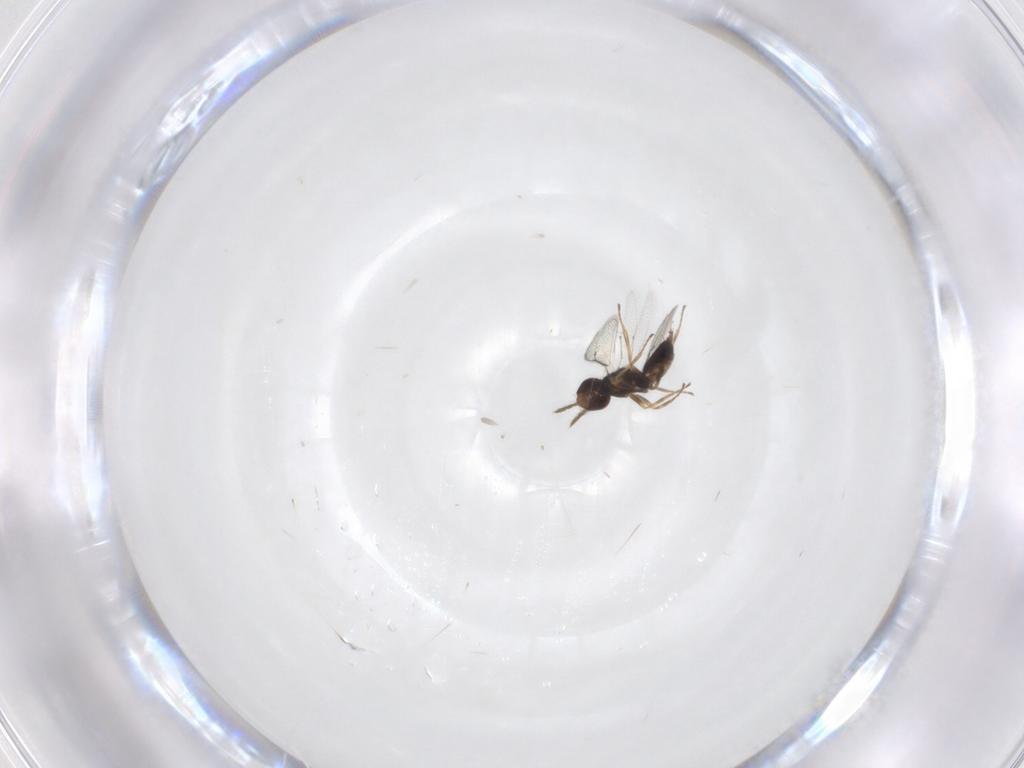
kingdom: Animalia
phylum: Arthropoda
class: Insecta
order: Hymenoptera
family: Eulophidae
